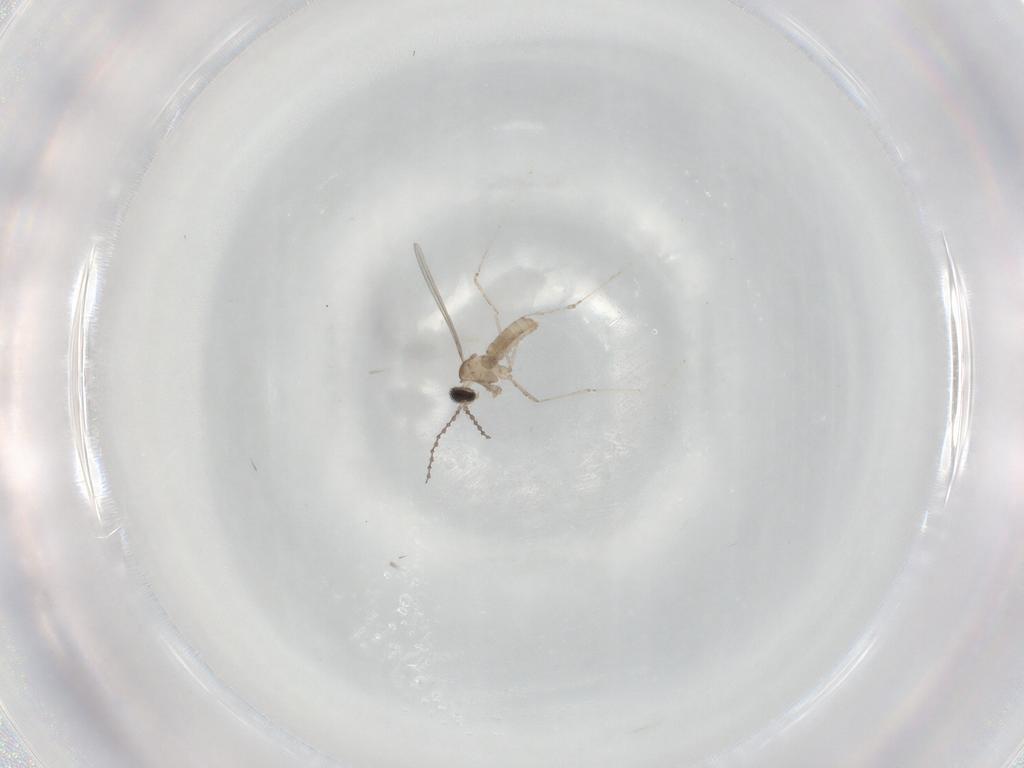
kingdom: Animalia
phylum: Arthropoda
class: Insecta
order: Diptera
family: Cecidomyiidae
